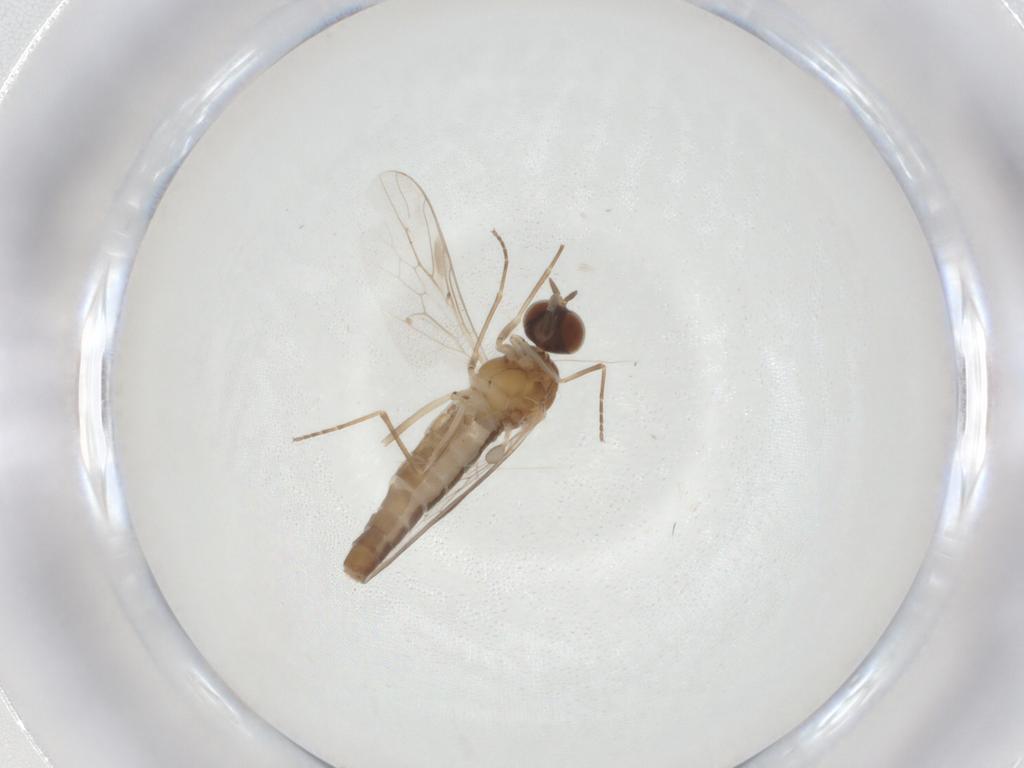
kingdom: Animalia
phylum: Arthropoda
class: Insecta
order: Diptera
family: Scenopinidae
